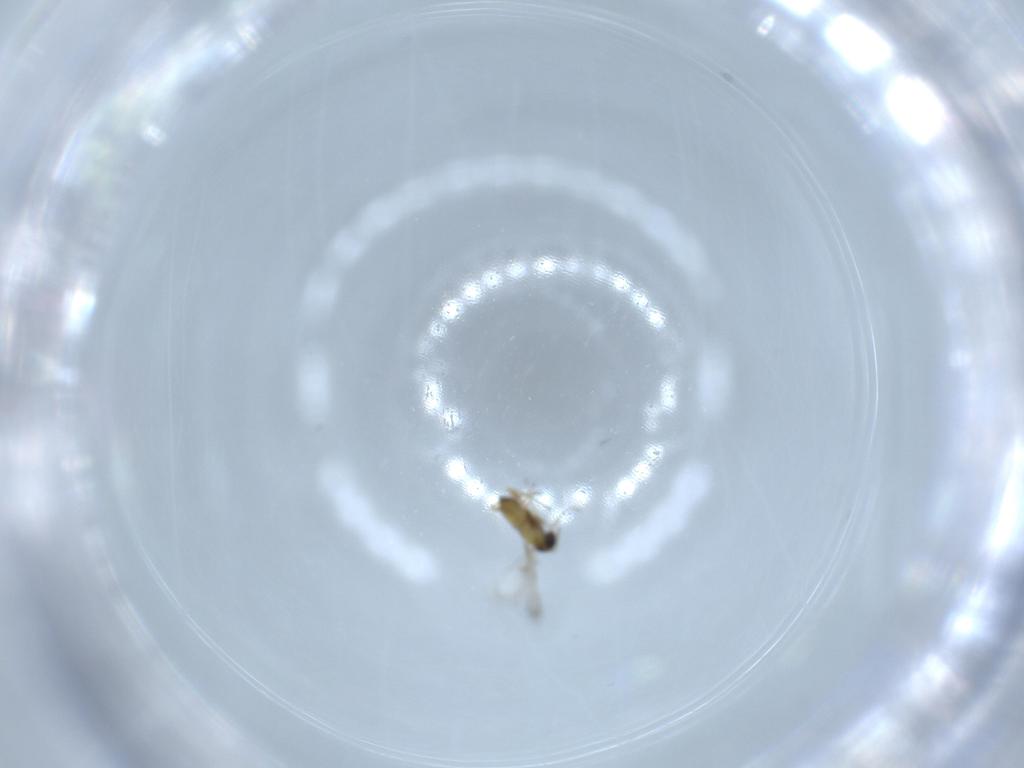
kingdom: Animalia
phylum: Arthropoda
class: Insecta
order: Hymenoptera
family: Trichogrammatidae
